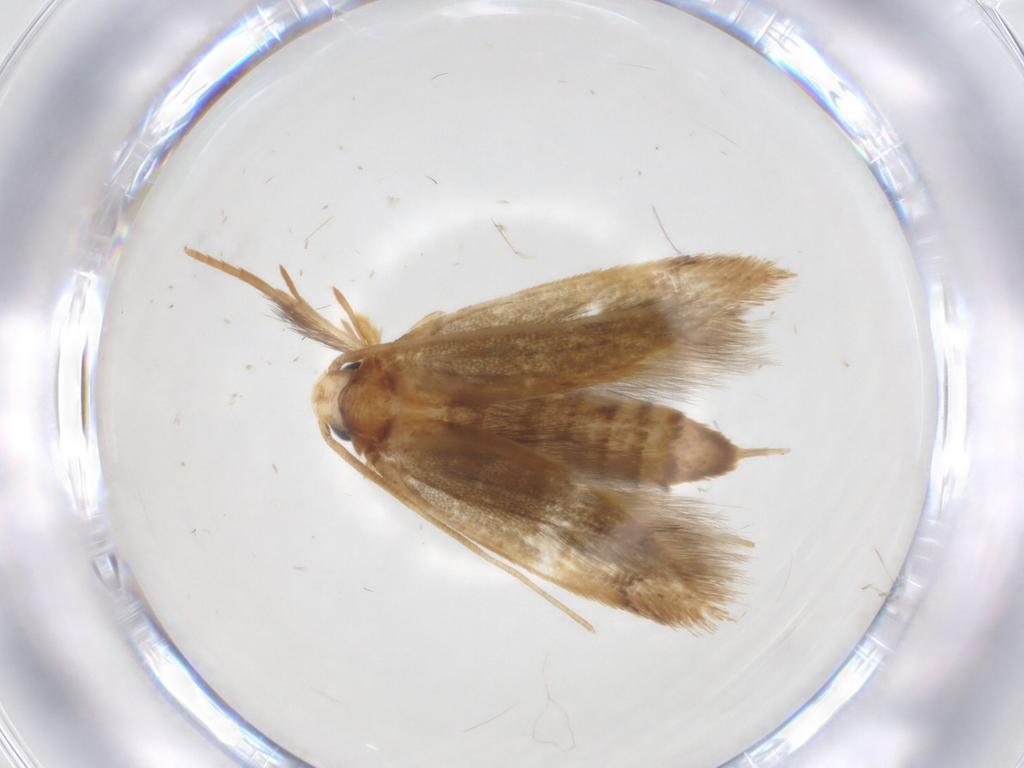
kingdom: Animalia
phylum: Arthropoda
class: Insecta
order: Lepidoptera
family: Tineidae
